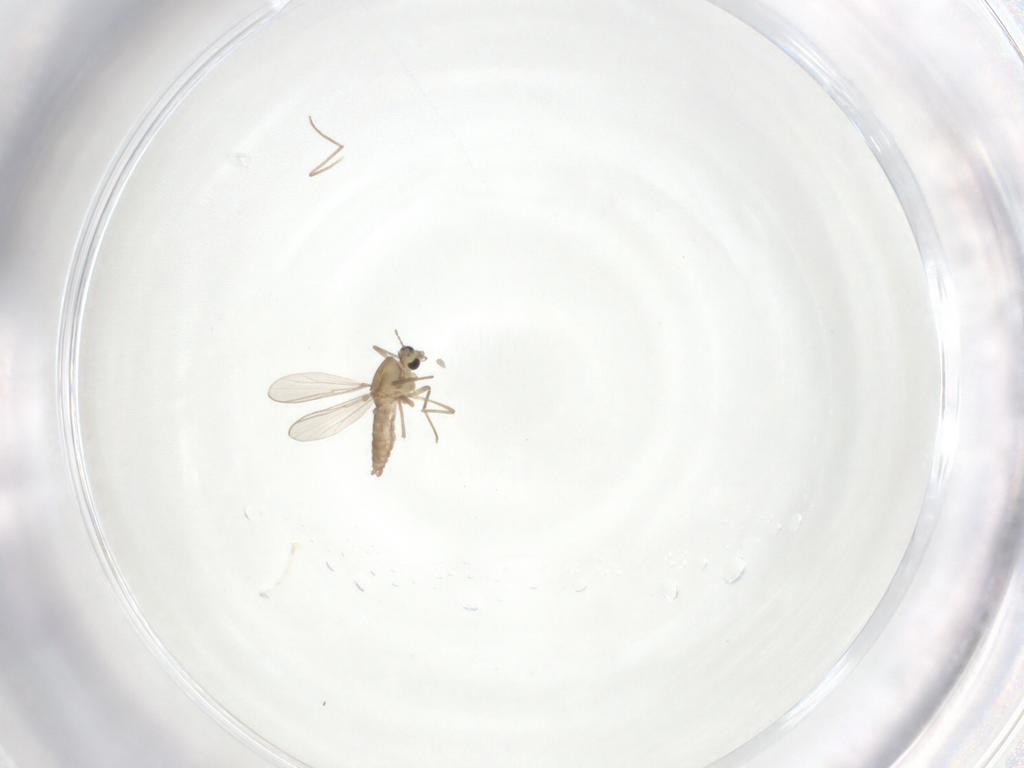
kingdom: Animalia
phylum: Arthropoda
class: Insecta
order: Diptera
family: Chironomidae
